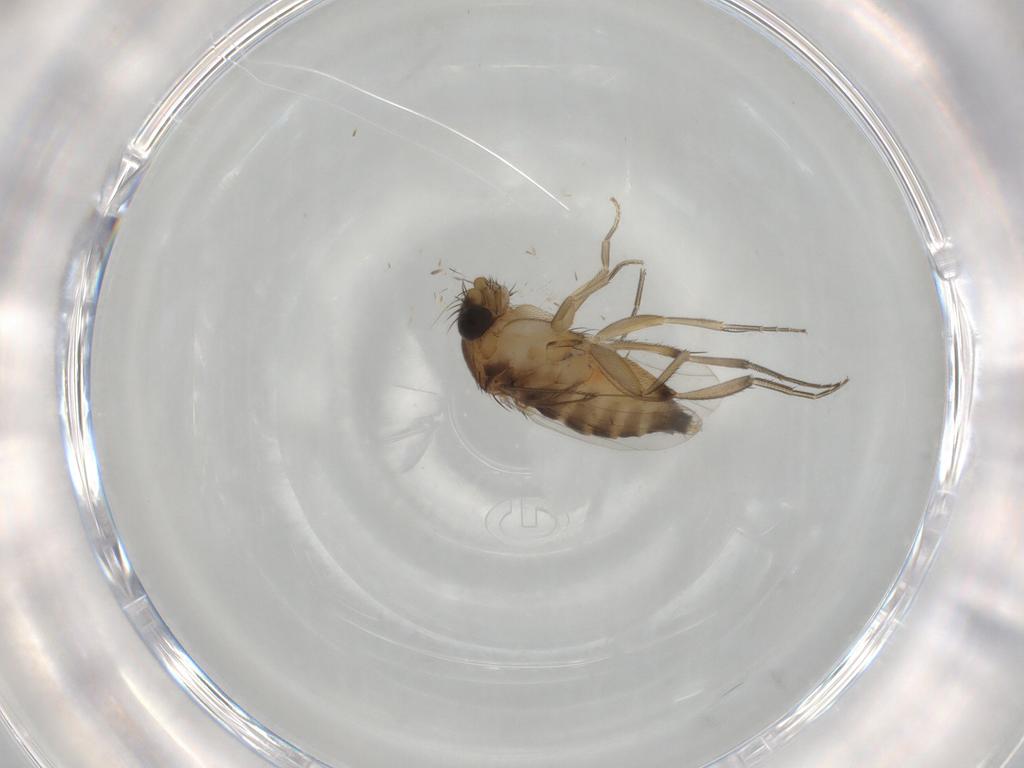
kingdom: Animalia
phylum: Arthropoda
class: Insecta
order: Diptera
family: Phoridae
